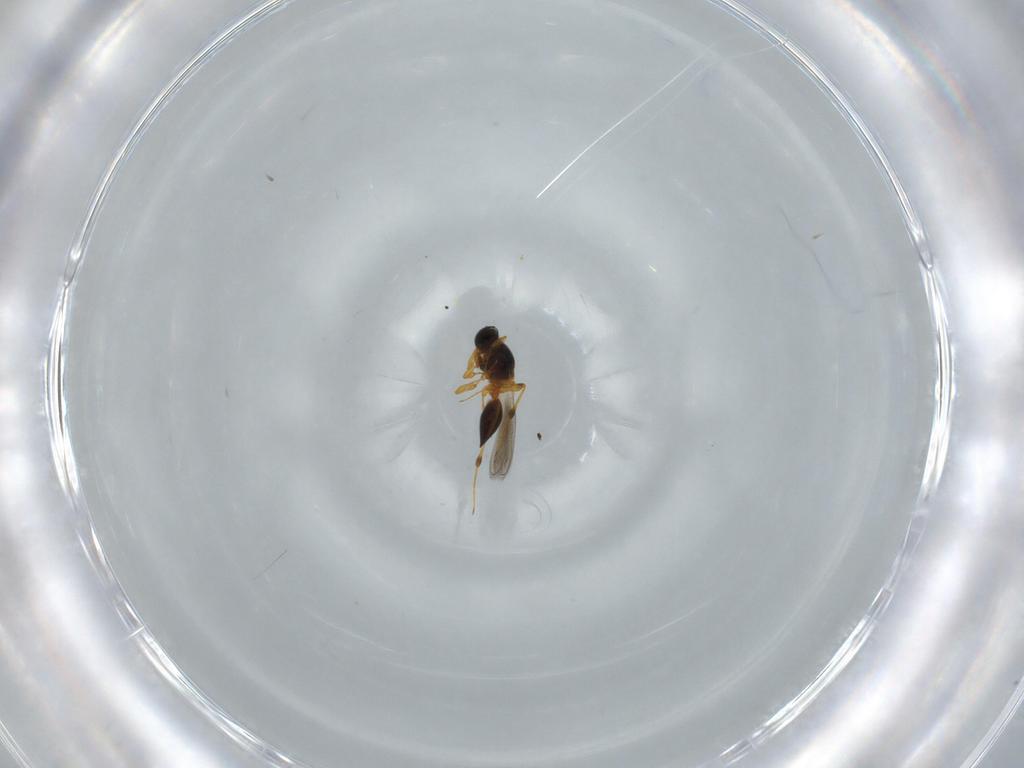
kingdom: Animalia
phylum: Arthropoda
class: Insecta
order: Hymenoptera
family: Platygastridae
